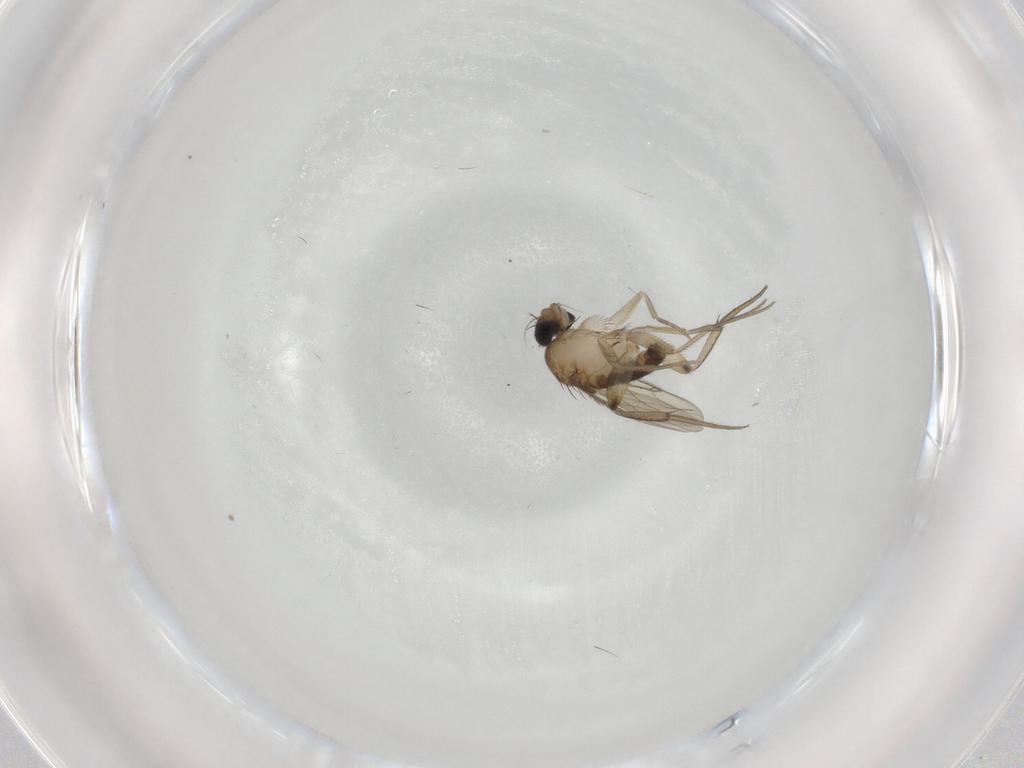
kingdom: Animalia
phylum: Arthropoda
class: Insecta
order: Diptera
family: Phoridae
